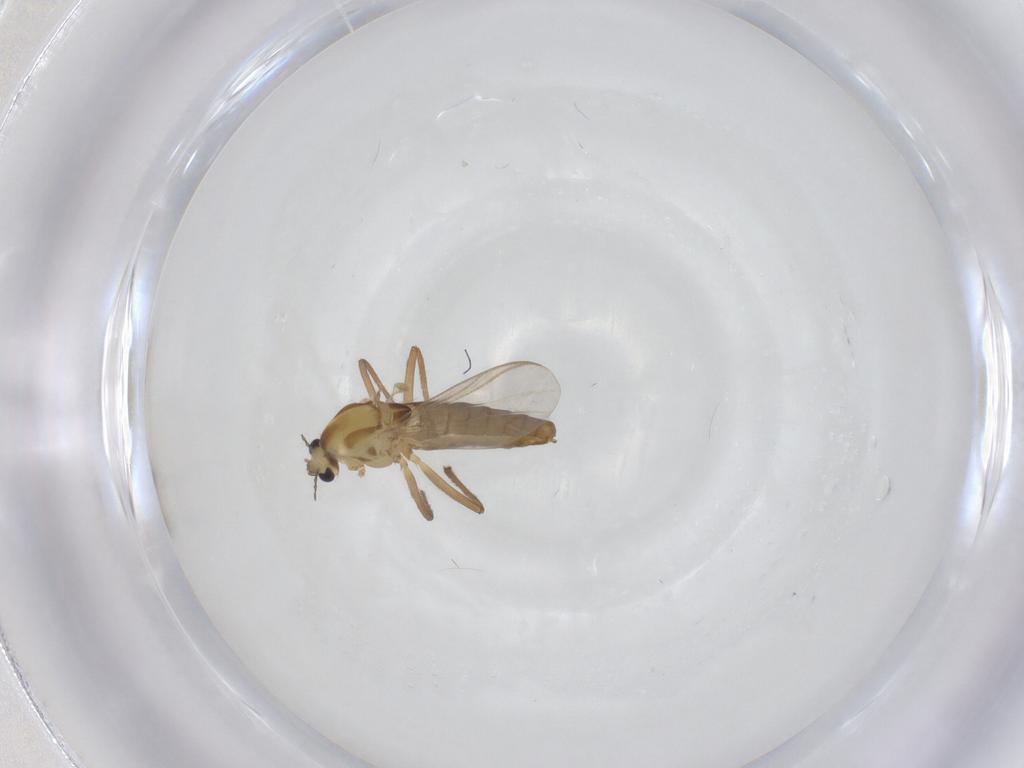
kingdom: Animalia
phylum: Arthropoda
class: Insecta
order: Diptera
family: Chironomidae
